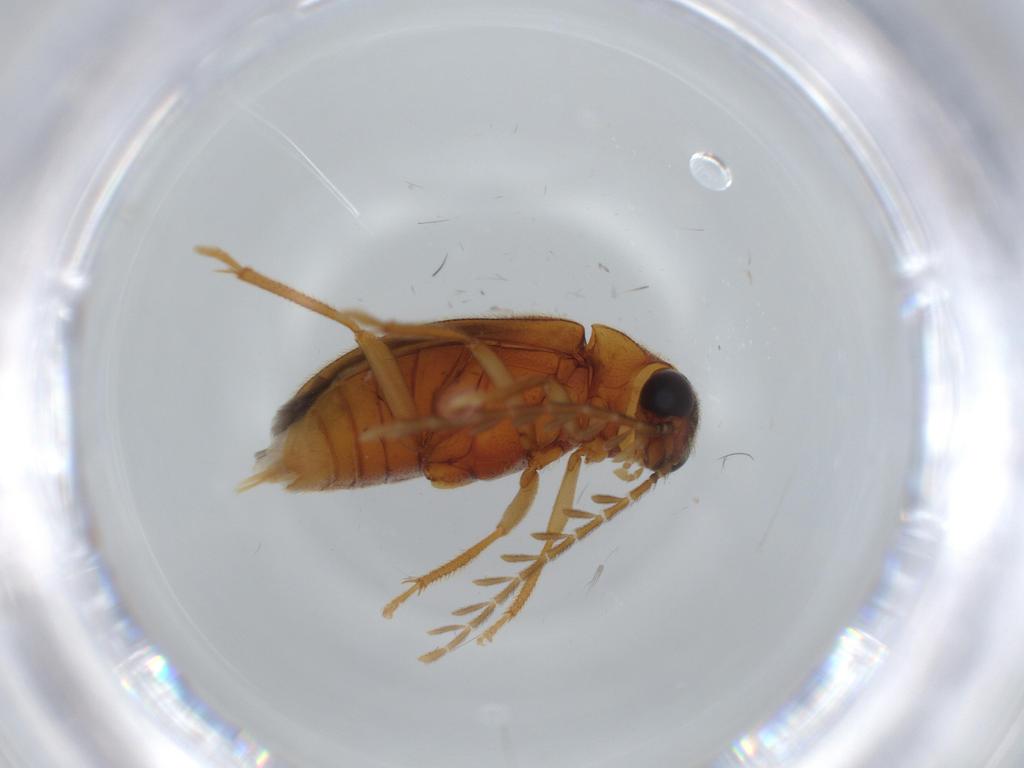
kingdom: Animalia
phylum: Arthropoda
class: Insecta
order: Coleoptera
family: Ptilodactylidae
